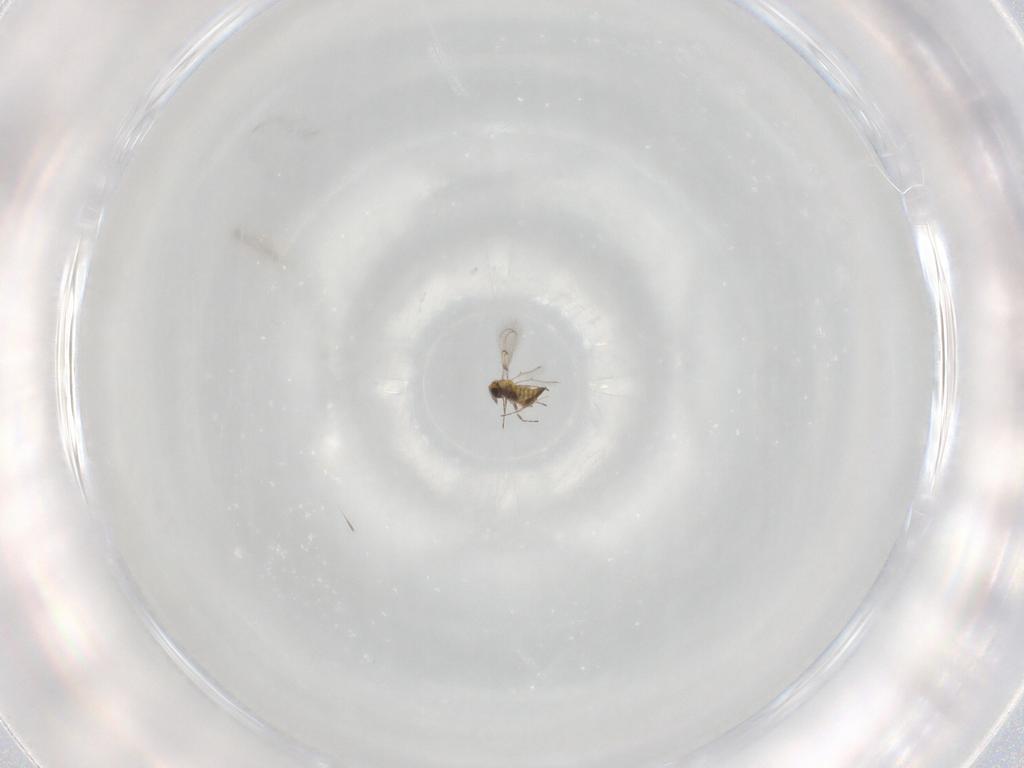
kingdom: Animalia
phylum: Arthropoda
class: Insecta
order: Hymenoptera
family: Trichogrammatidae
